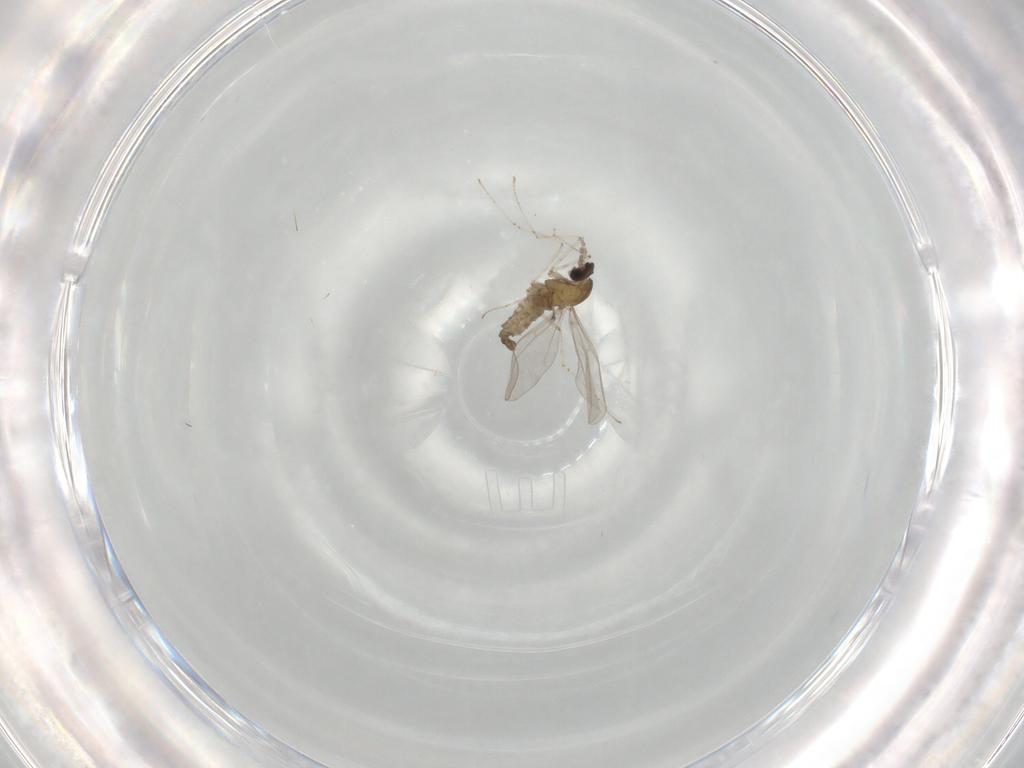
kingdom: Animalia
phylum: Arthropoda
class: Insecta
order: Diptera
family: Cecidomyiidae
